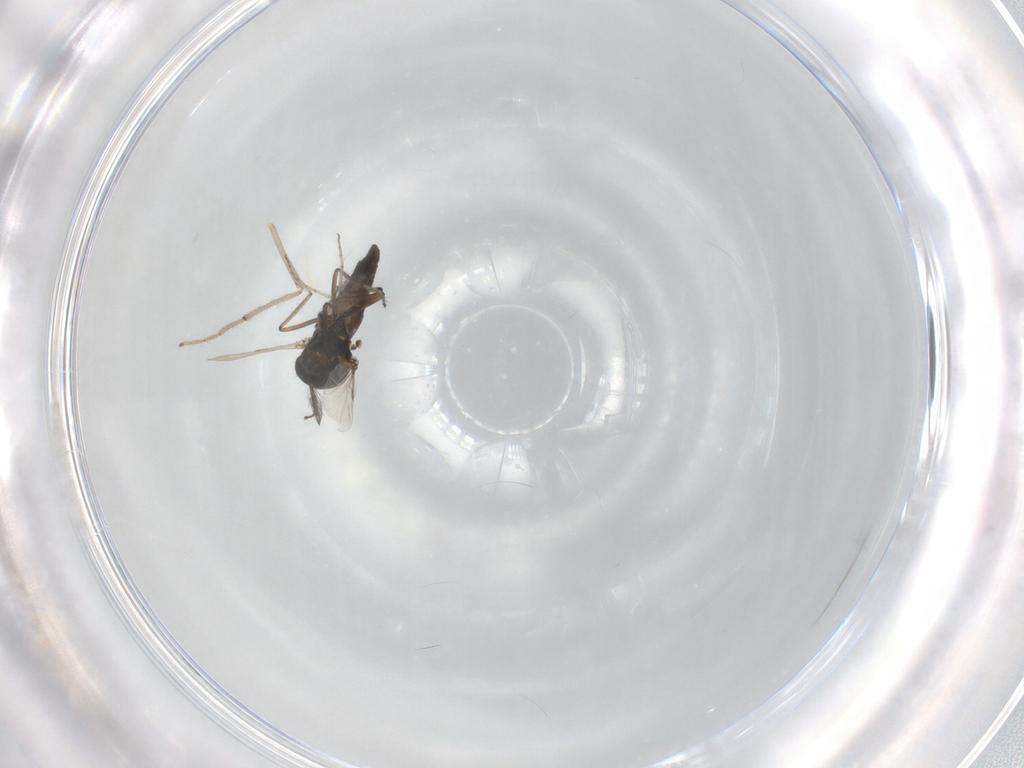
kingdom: Animalia
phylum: Arthropoda
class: Insecta
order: Diptera
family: Ceratopogonidae
